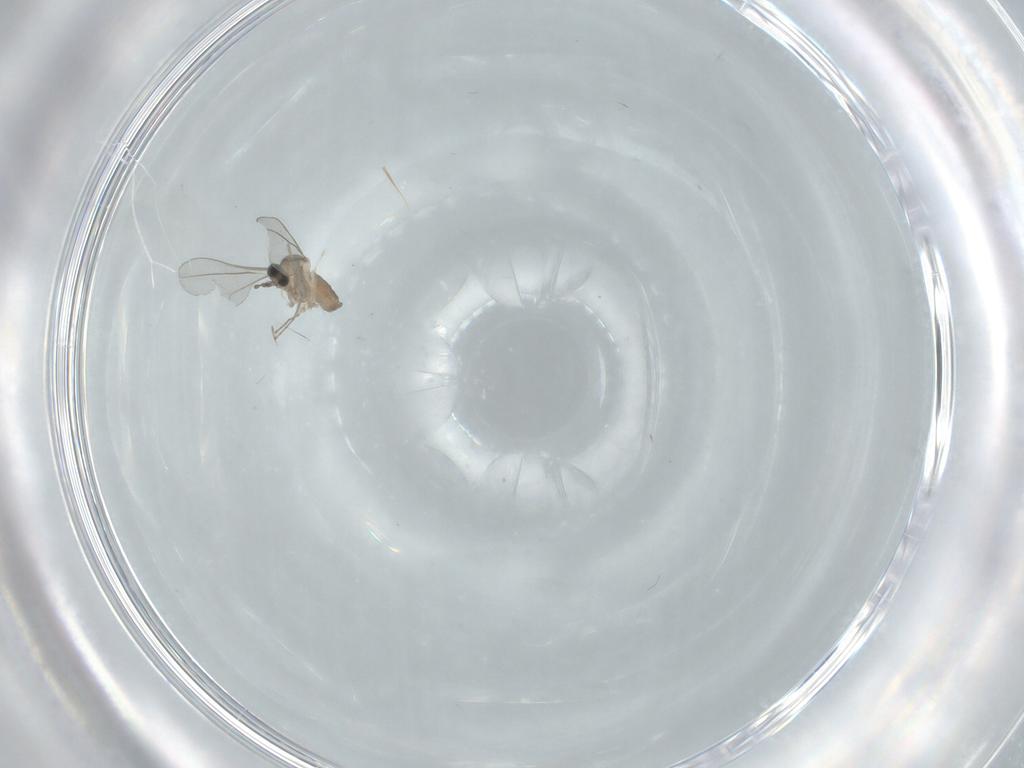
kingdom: Animalia
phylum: Arthropoda
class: Insecta
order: Diptera
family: Cecidomyiidae
